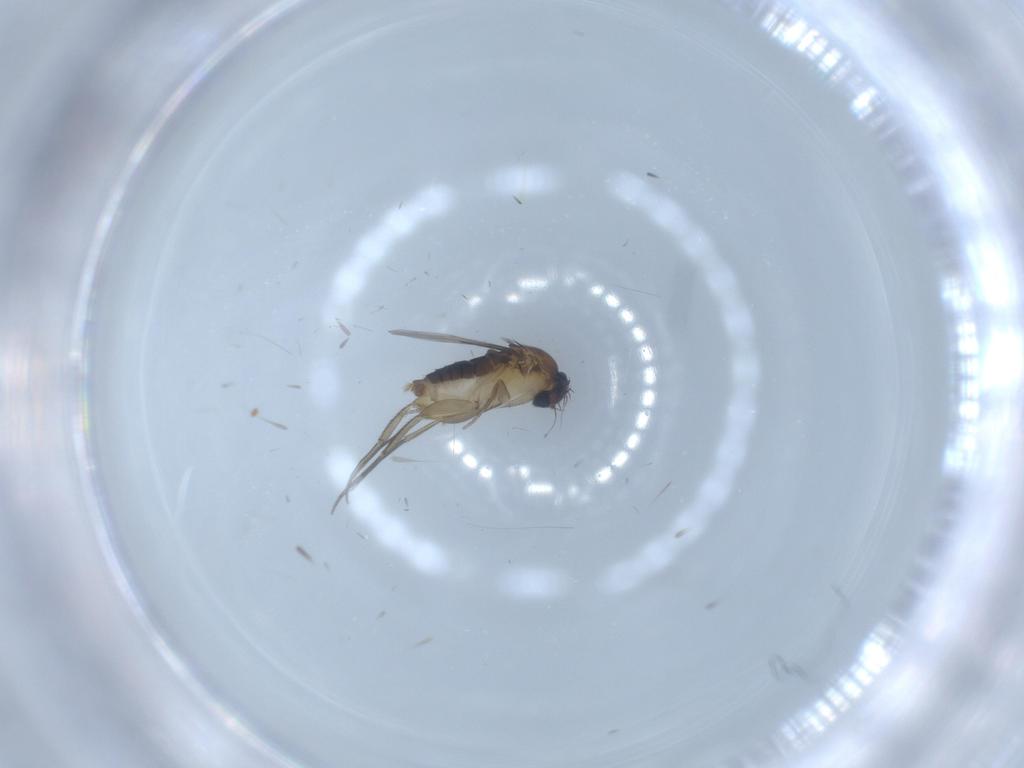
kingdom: Animalia
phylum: Arthropoda
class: Insecta
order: Diptera
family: Phoridae
